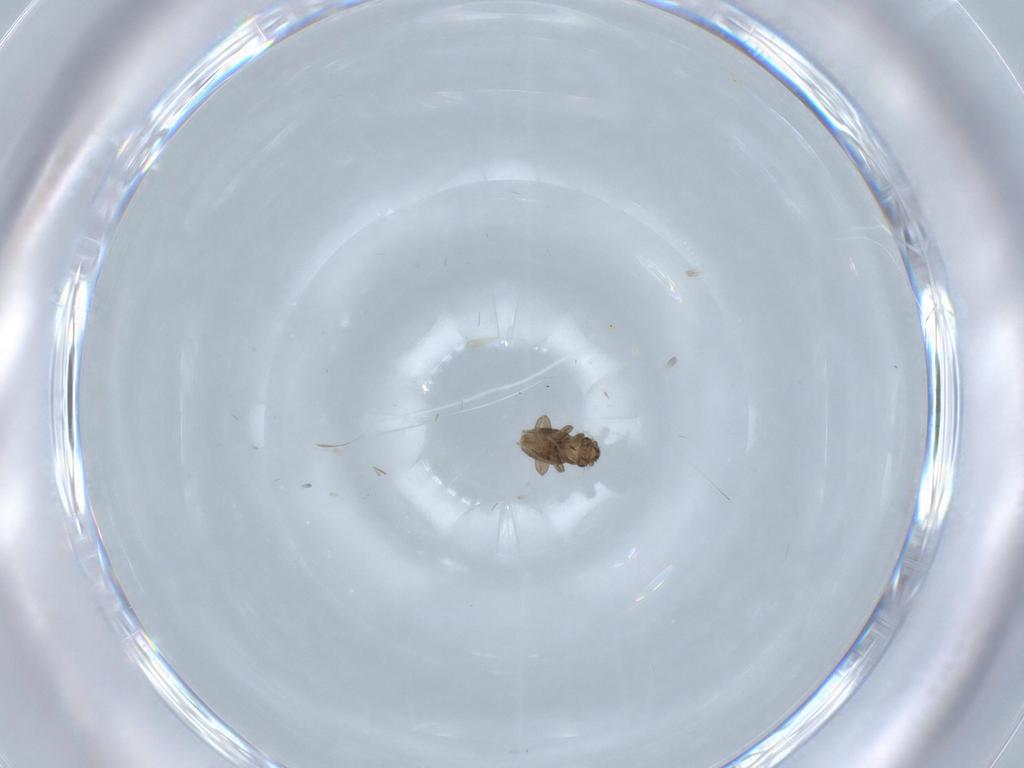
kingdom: Animalia
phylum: Arthropoda
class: Insecta
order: Diptera
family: Phoridae
